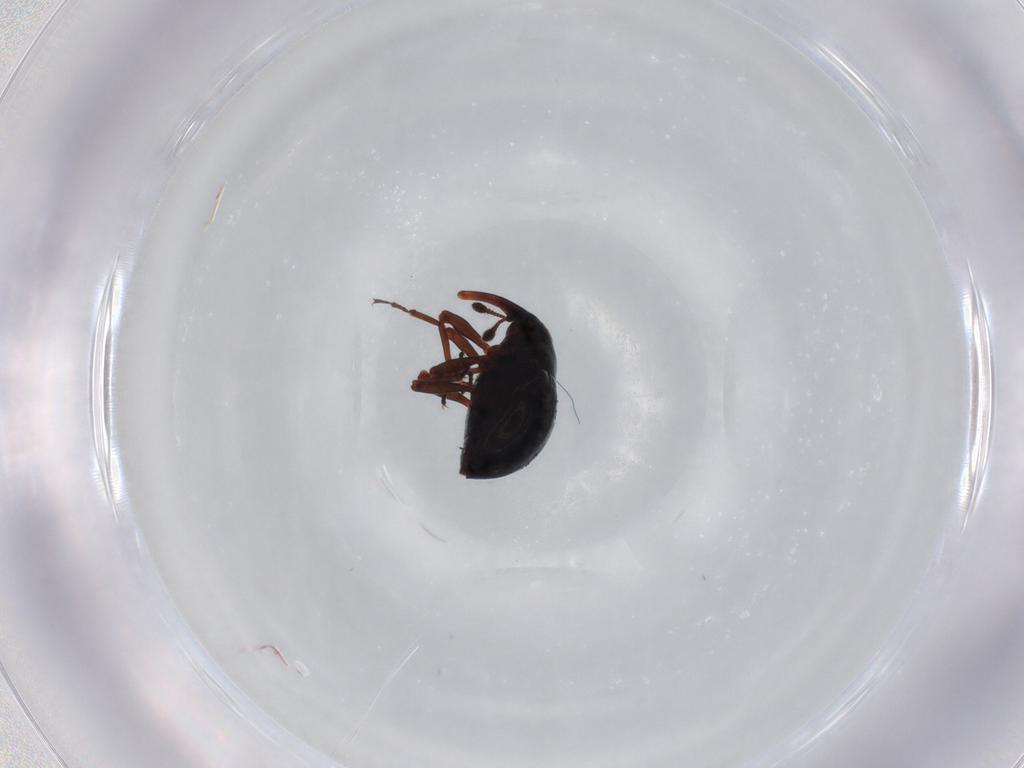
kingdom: Animalia
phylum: Arthropoda
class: Insecta
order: Coleoptera
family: Curculionidae
